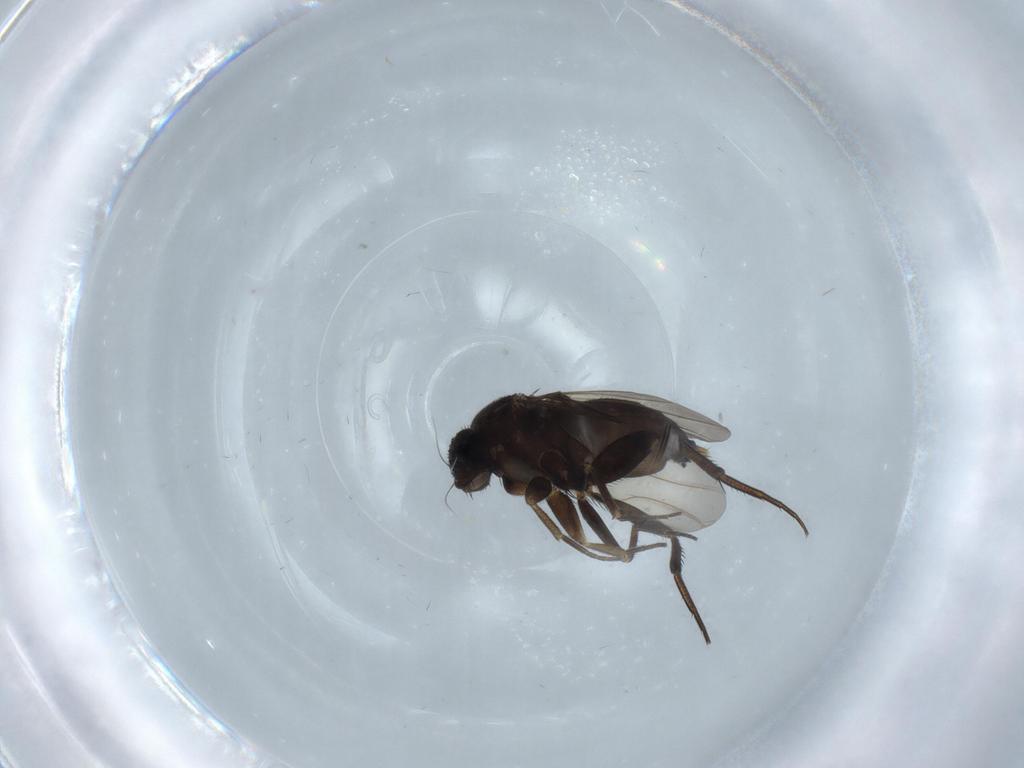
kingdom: Animalia
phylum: Arthropoda
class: Insecta
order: Diptera
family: Phoridae
